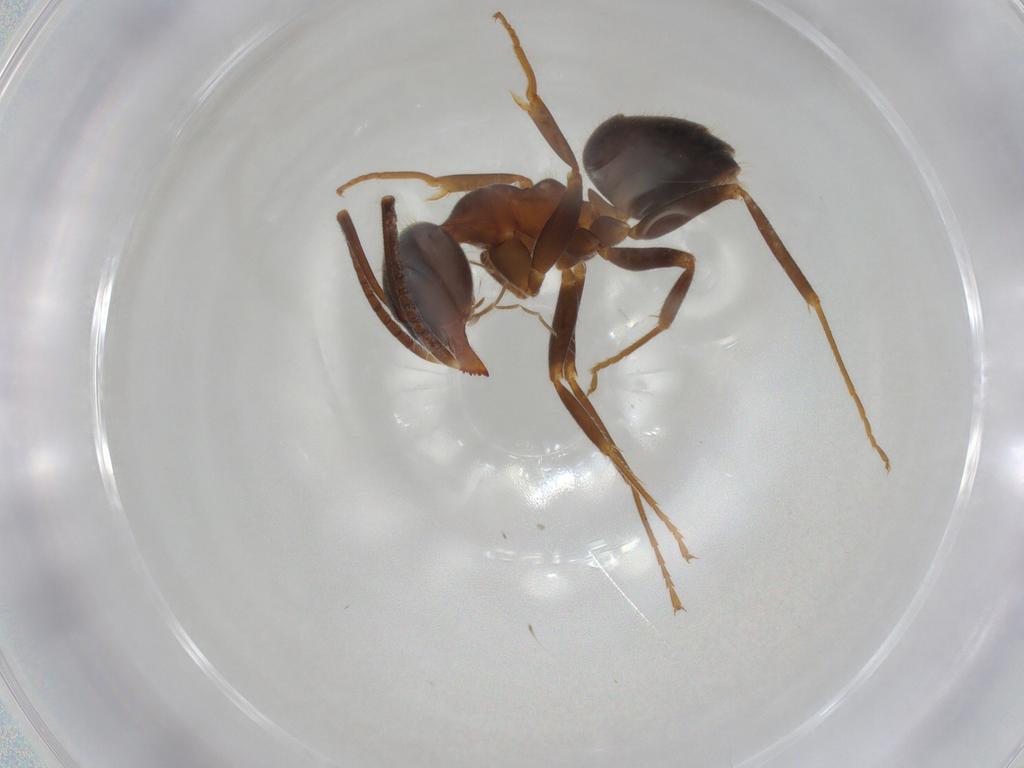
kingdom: Animalia
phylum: Arthropoda
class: Insecta
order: Hymenoptera
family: Formicidae
